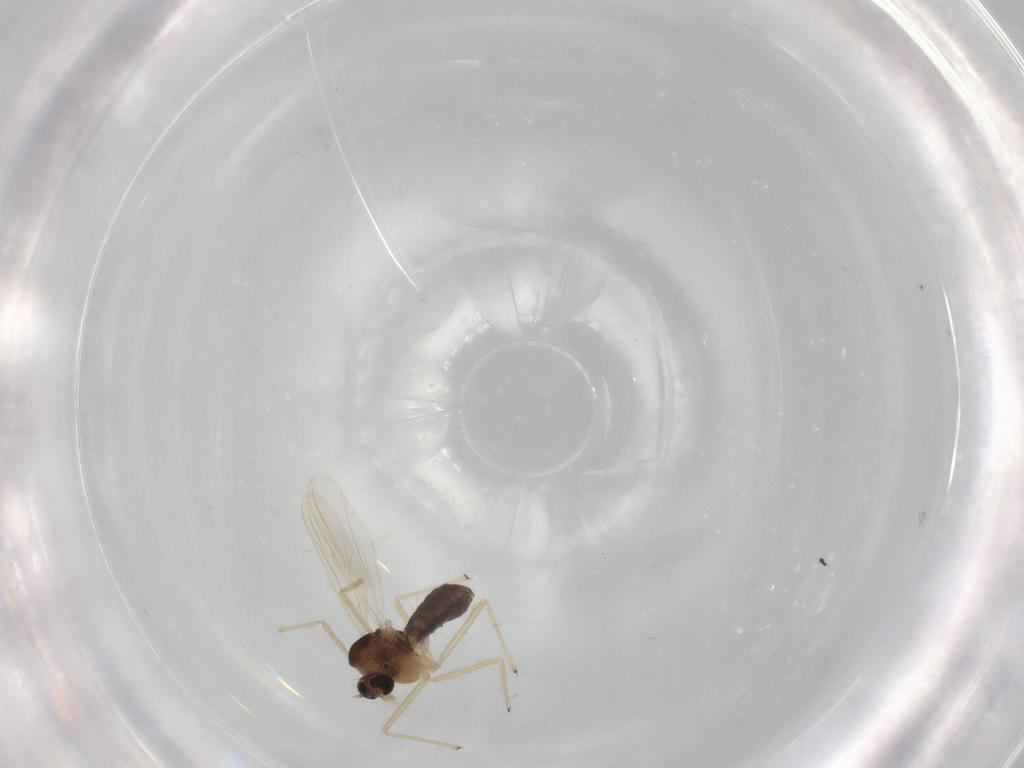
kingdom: Animalia
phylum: Arthropoda
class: Insecta
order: Diptera
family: Chironomidae
